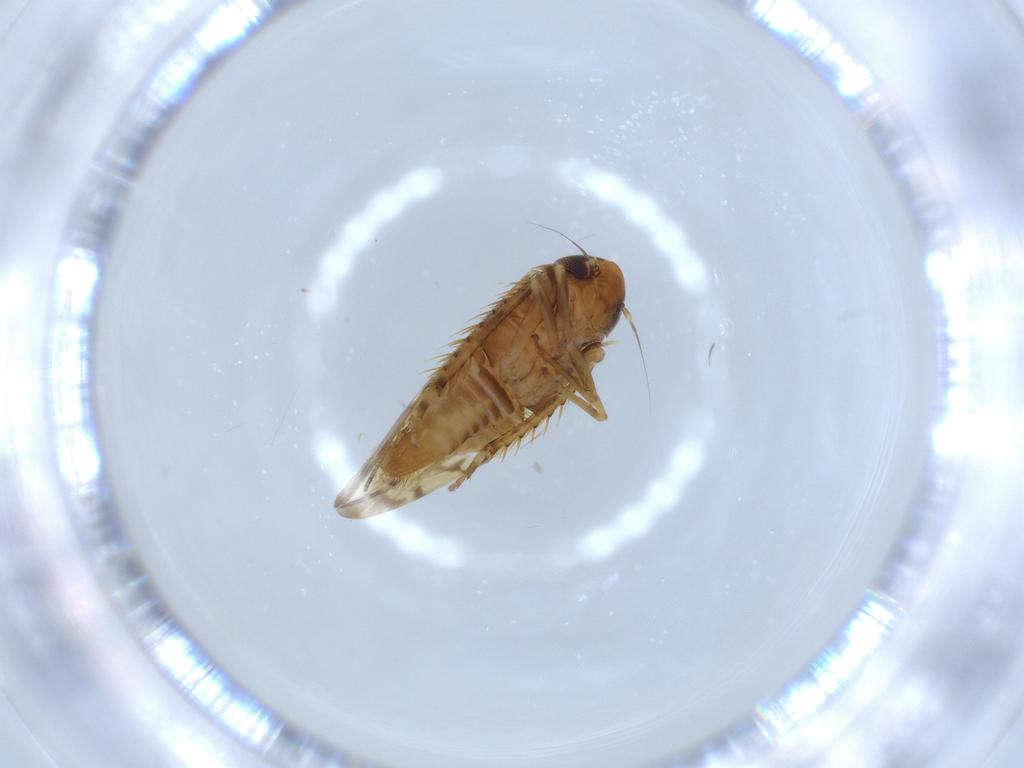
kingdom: Animalia
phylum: Arthropoda
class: Insecta
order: Hemiptera
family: Cicadellidae
